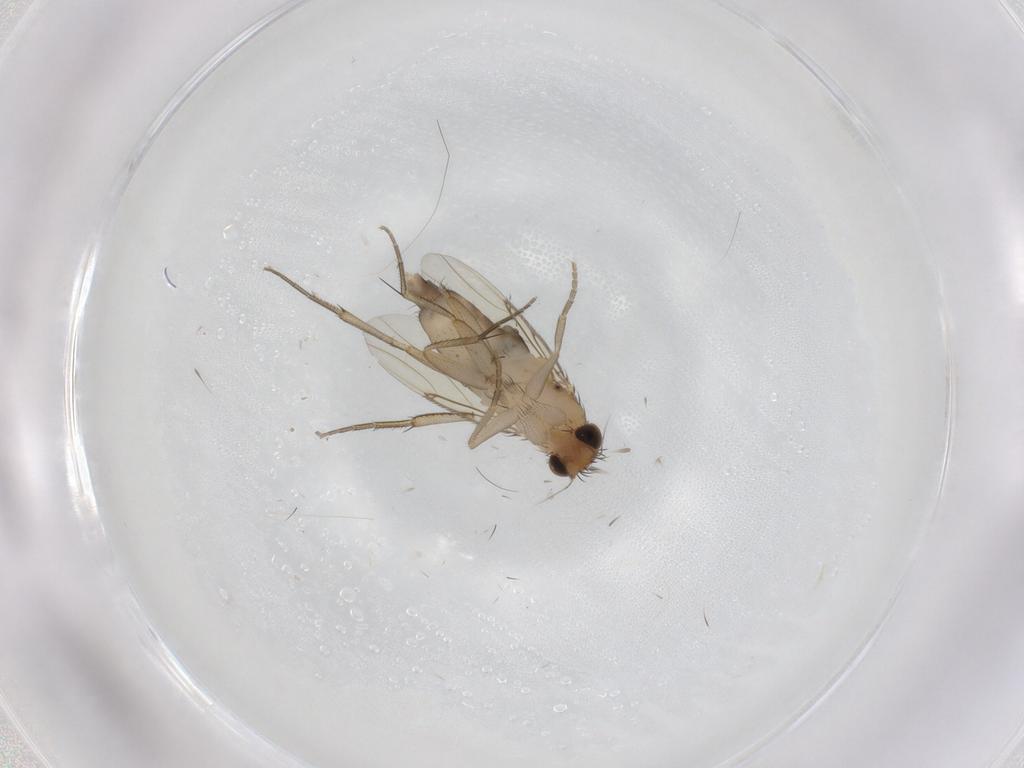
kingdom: Animalia
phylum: Arthropoda
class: Insecta
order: Diptera
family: Phoridae
